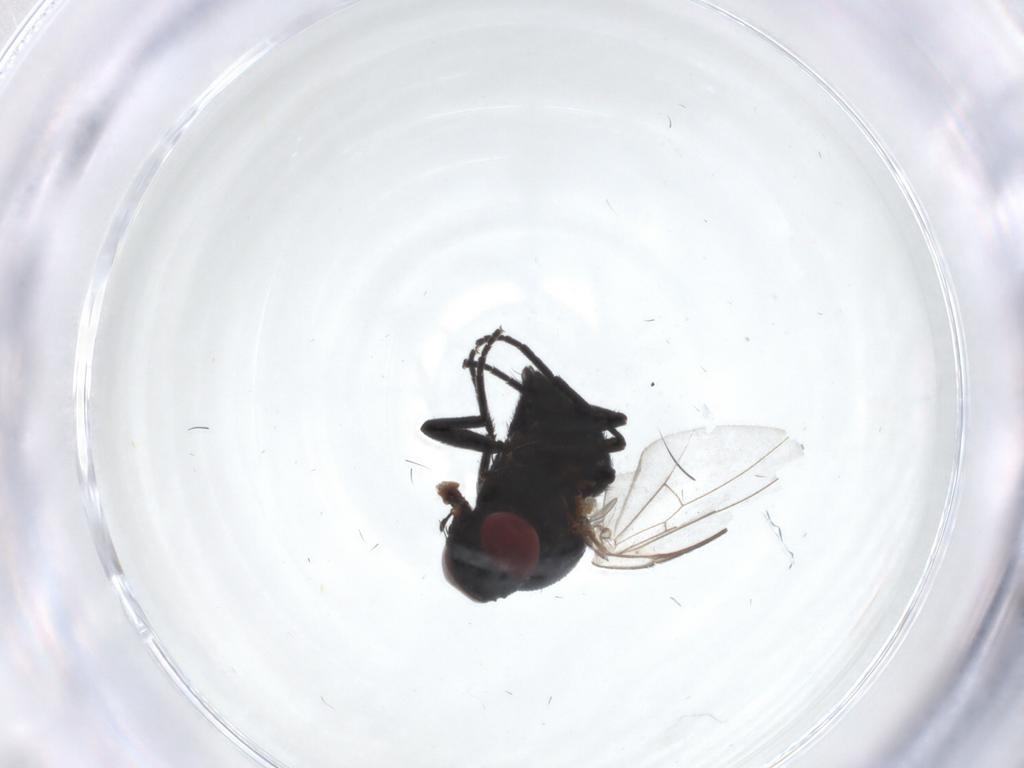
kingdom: Animalia
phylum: Arthropoda
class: Insecta
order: Diptera
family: Agromyzidae
